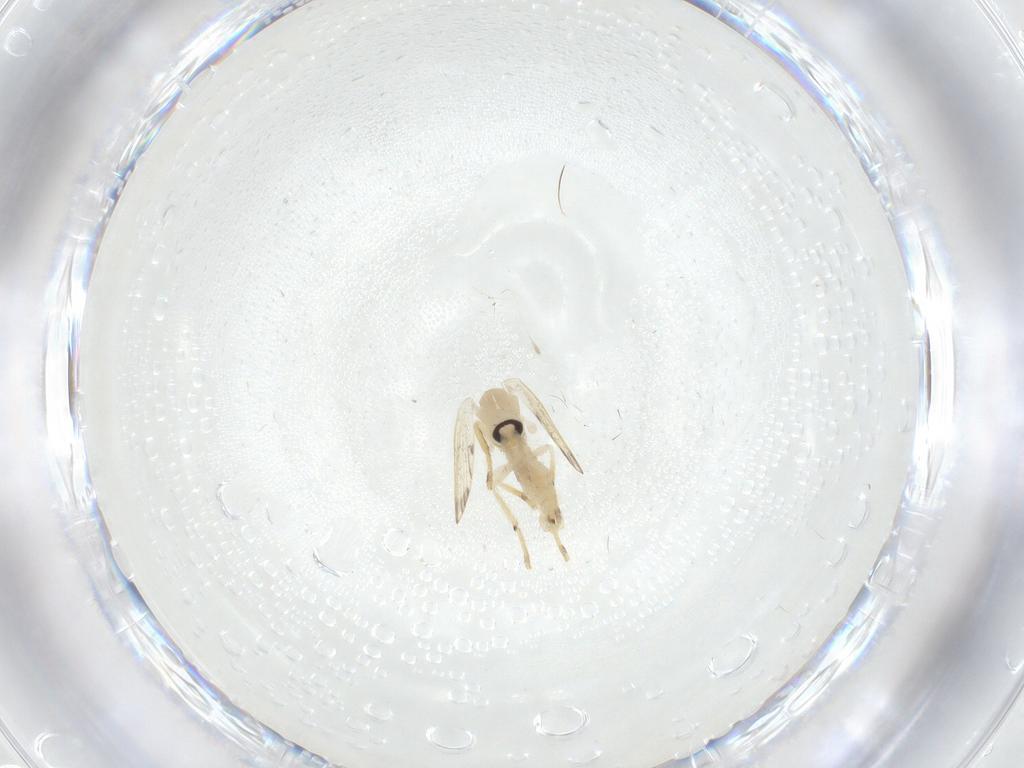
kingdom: Animalia
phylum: Arthropoda
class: Insecta
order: Diptera
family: Psychodidae
